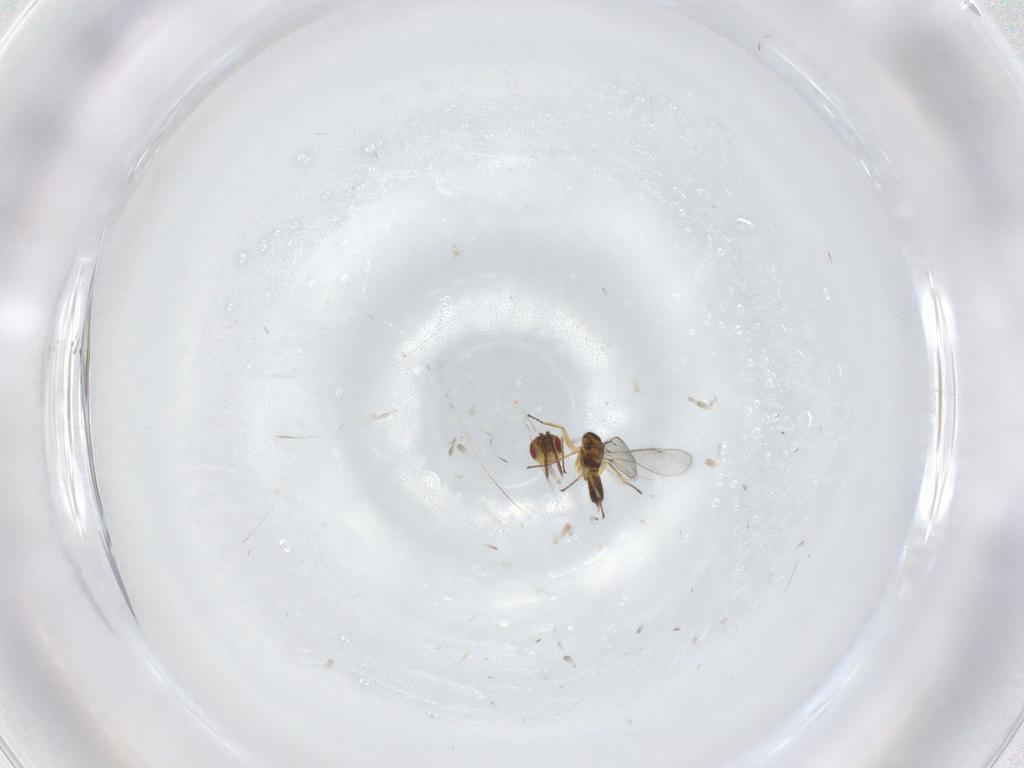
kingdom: Animalia
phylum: Arthropoda
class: Insecta
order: Hymenoptera
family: Eulophidae
